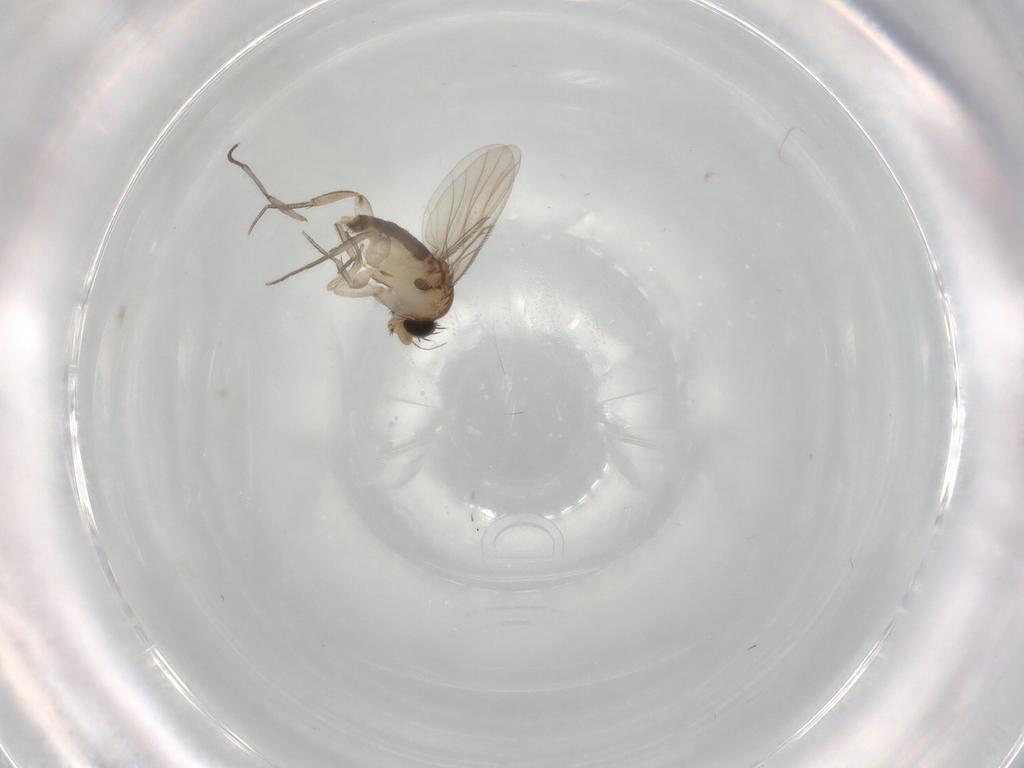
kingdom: Animalia
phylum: Arthropoda
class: Insecta
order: Diptera
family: Phoridae
